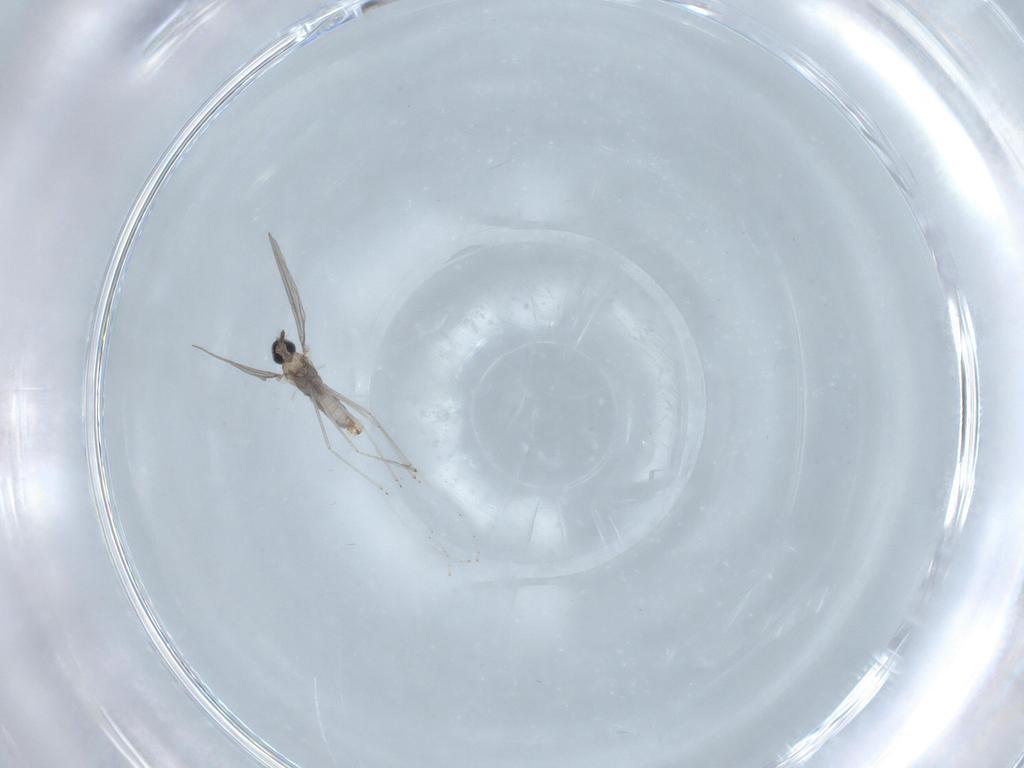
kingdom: Animalia
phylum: Arthropoda
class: Insecta
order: Diptera
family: Cecidomyiidae
